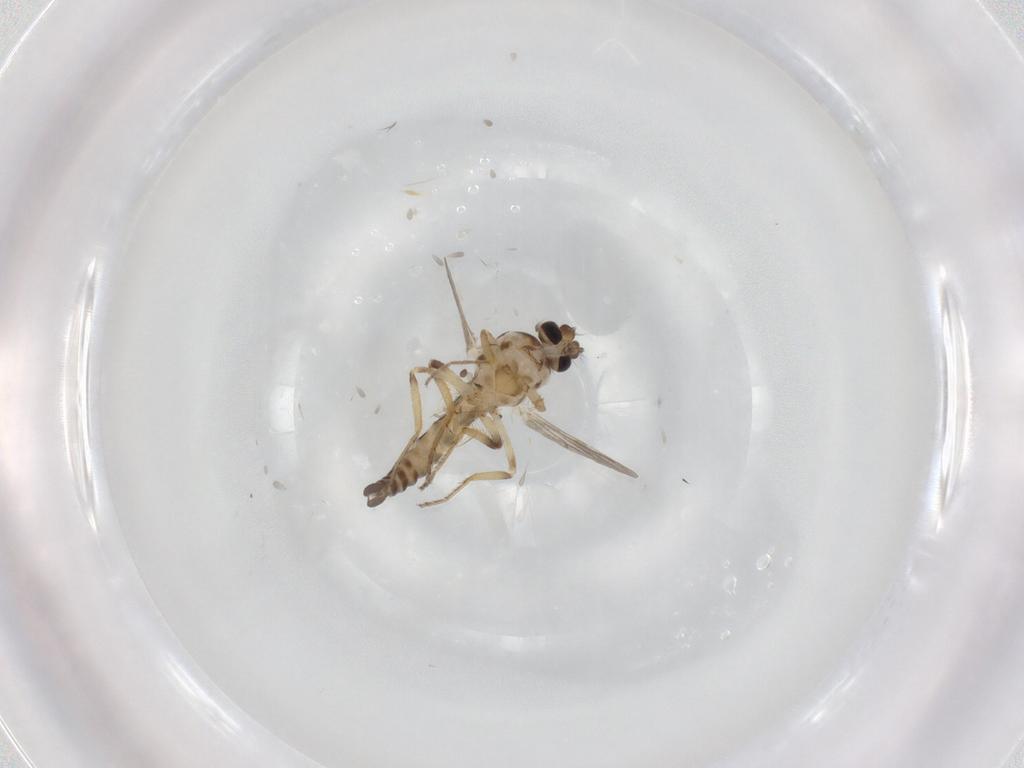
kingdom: Animalia
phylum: Arthropoda
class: Insecta
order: Diptera
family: Ceratopogonidae
